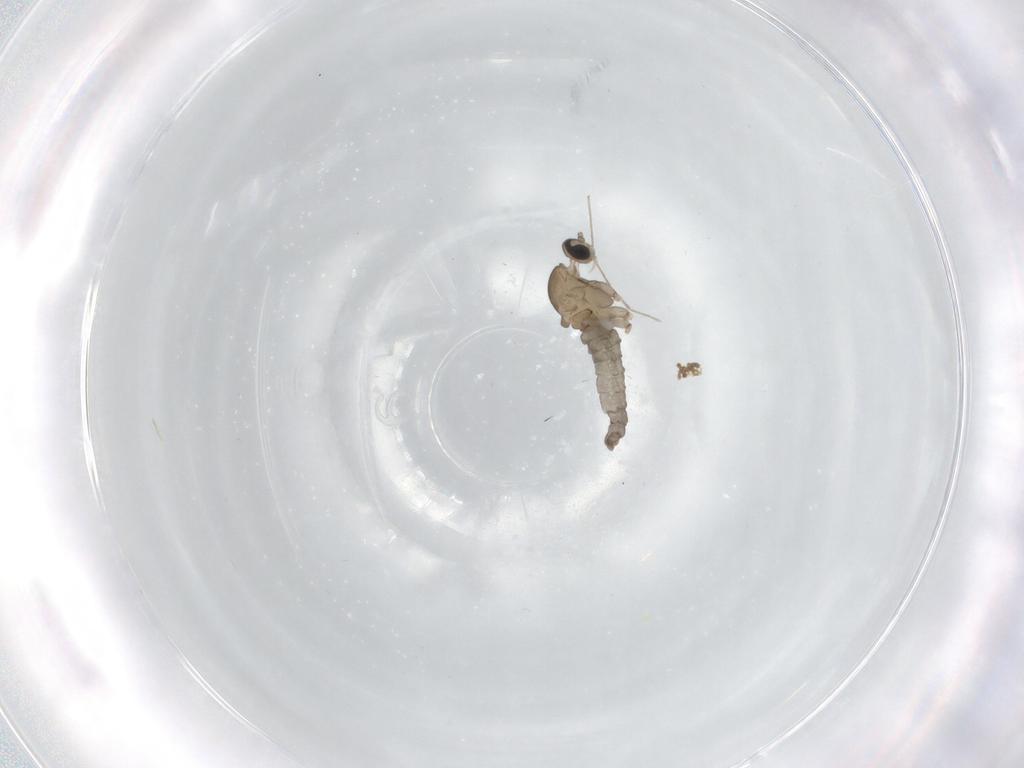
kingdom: Animalia
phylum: Arthropoda
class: Insecta
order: Diptera
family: Chironomidae
